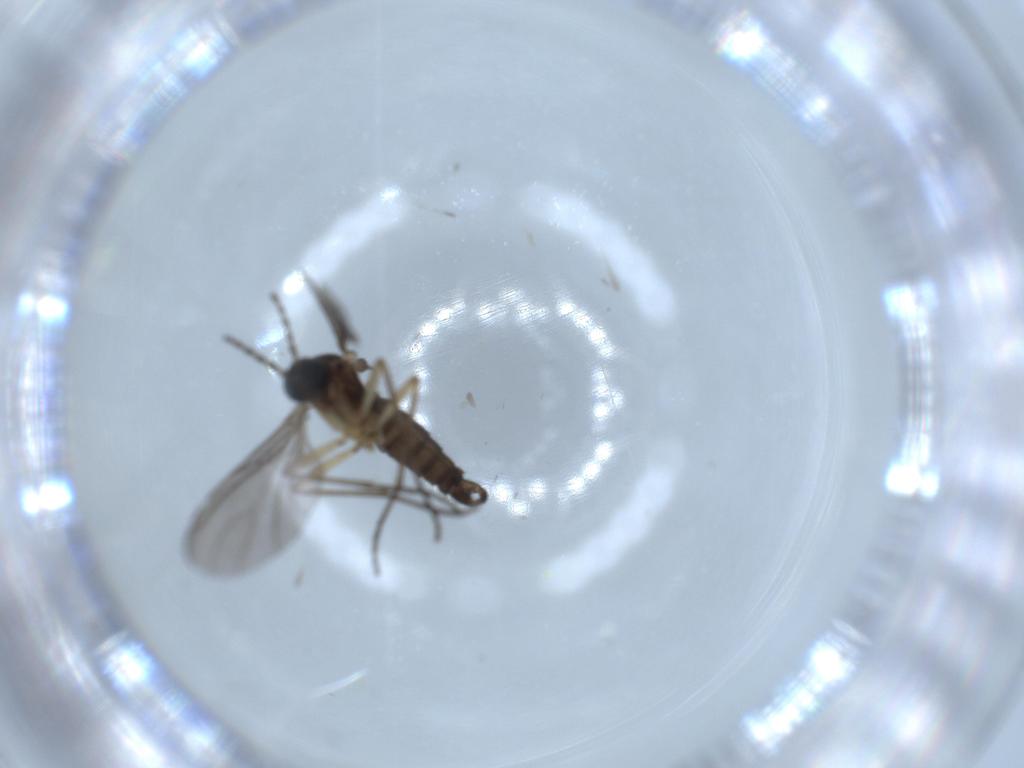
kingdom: Animalia
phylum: Arthropoda
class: Insecta
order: Diptera
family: Sciaridae
